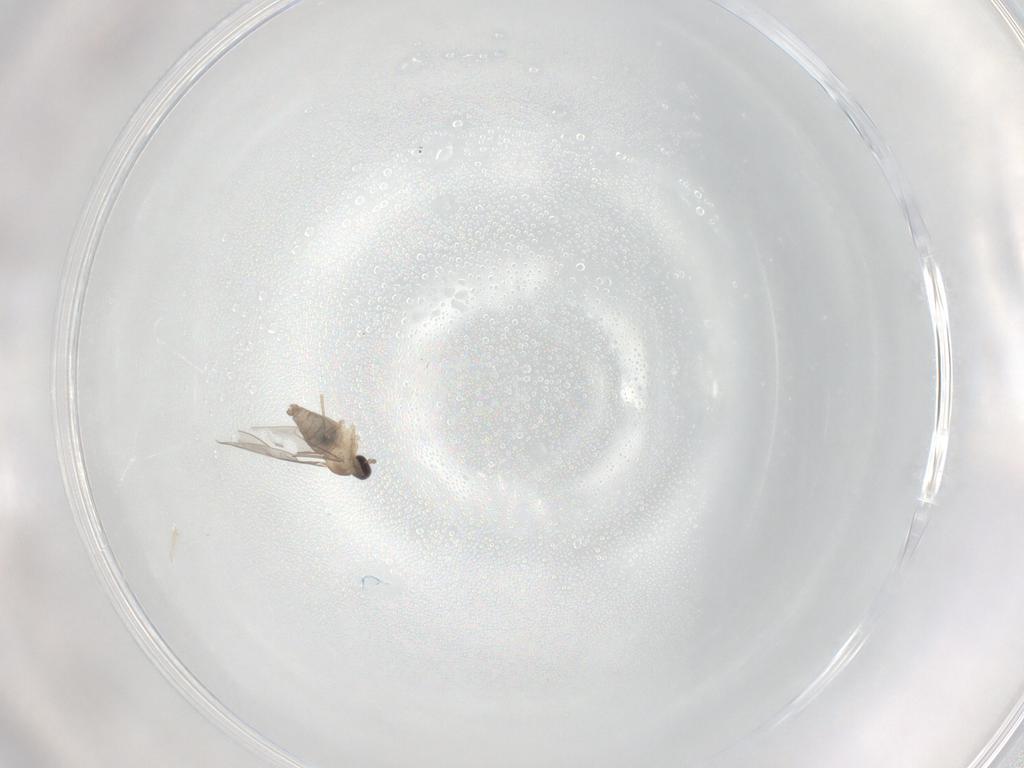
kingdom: Animalia
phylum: Arthropoda
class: Insecta
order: Diptera
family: Cecidomyiidae
